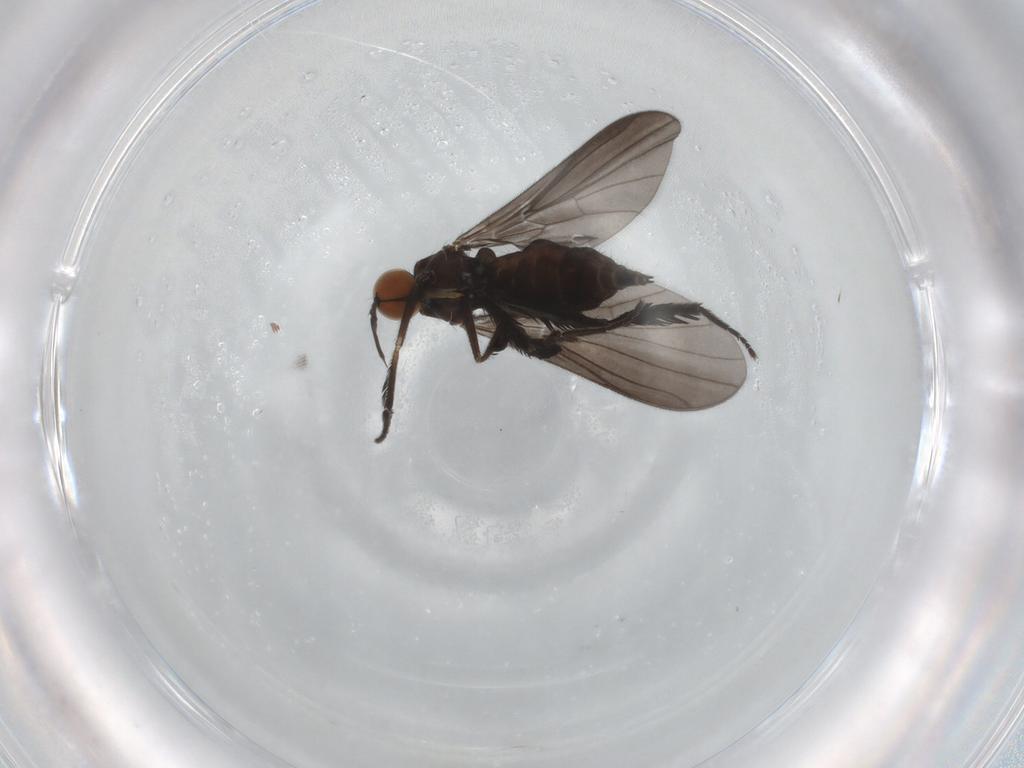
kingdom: Animalia
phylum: Arthropoda
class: Insecta
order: Diptera
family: Empididae
